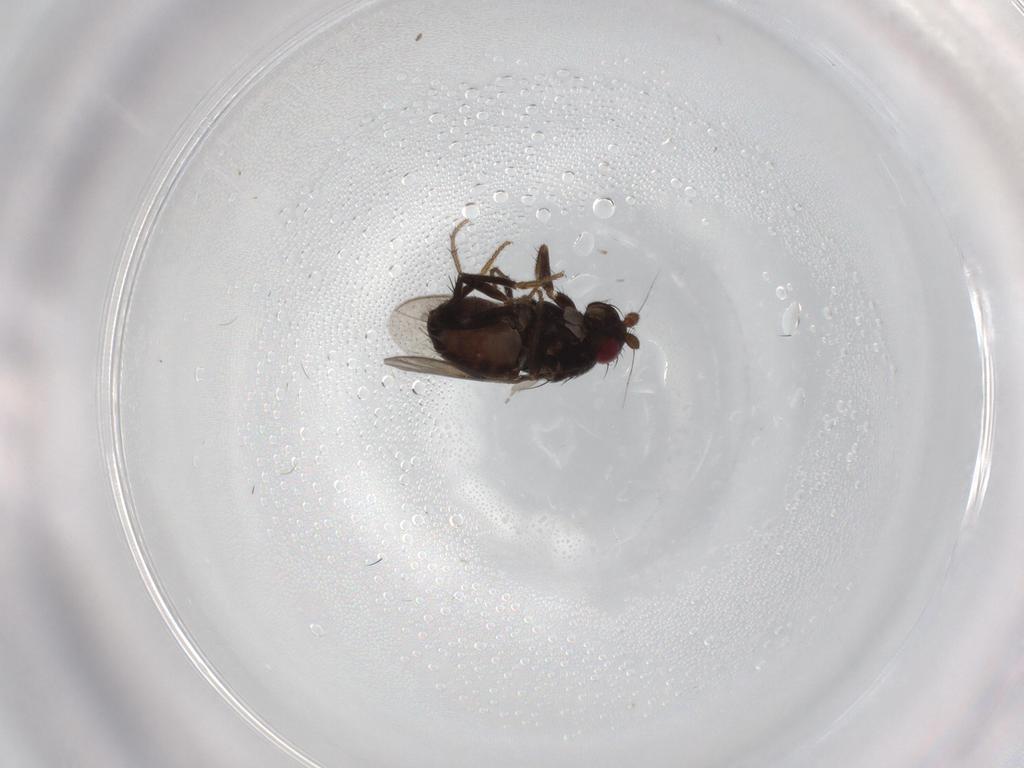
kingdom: Animalia
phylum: Arthropoda
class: Insecta
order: Diptera
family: Psychodidae
